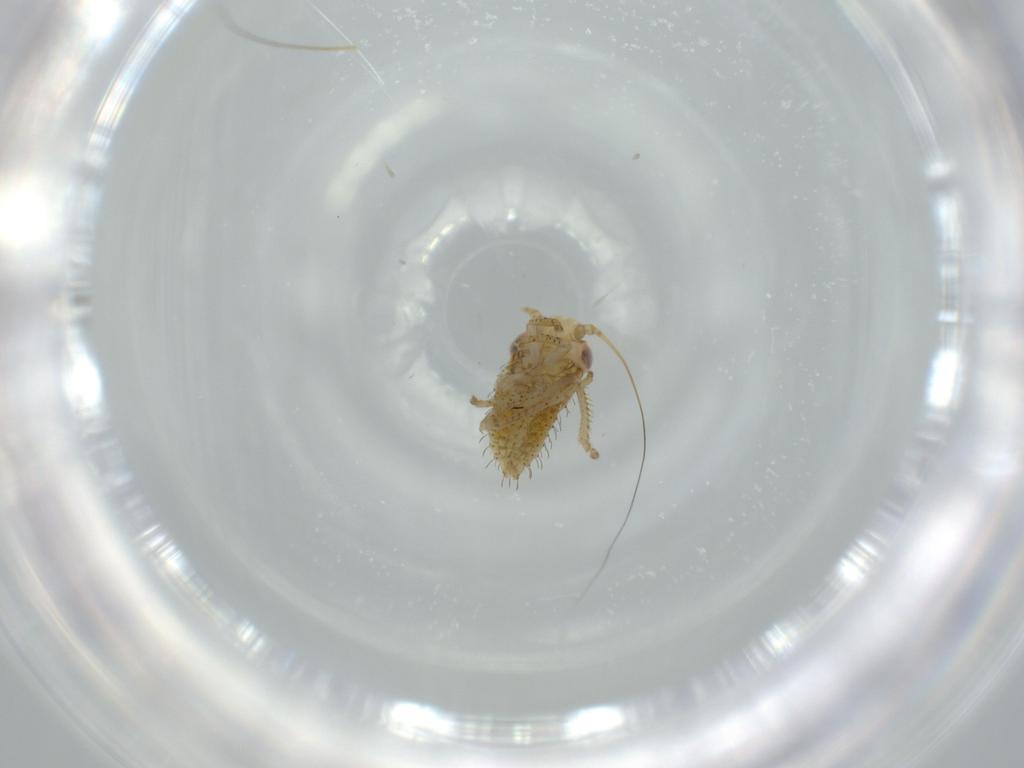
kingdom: Animalia
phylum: Arthropoda
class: Insecta
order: Hemiptera
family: Cicadellidae
